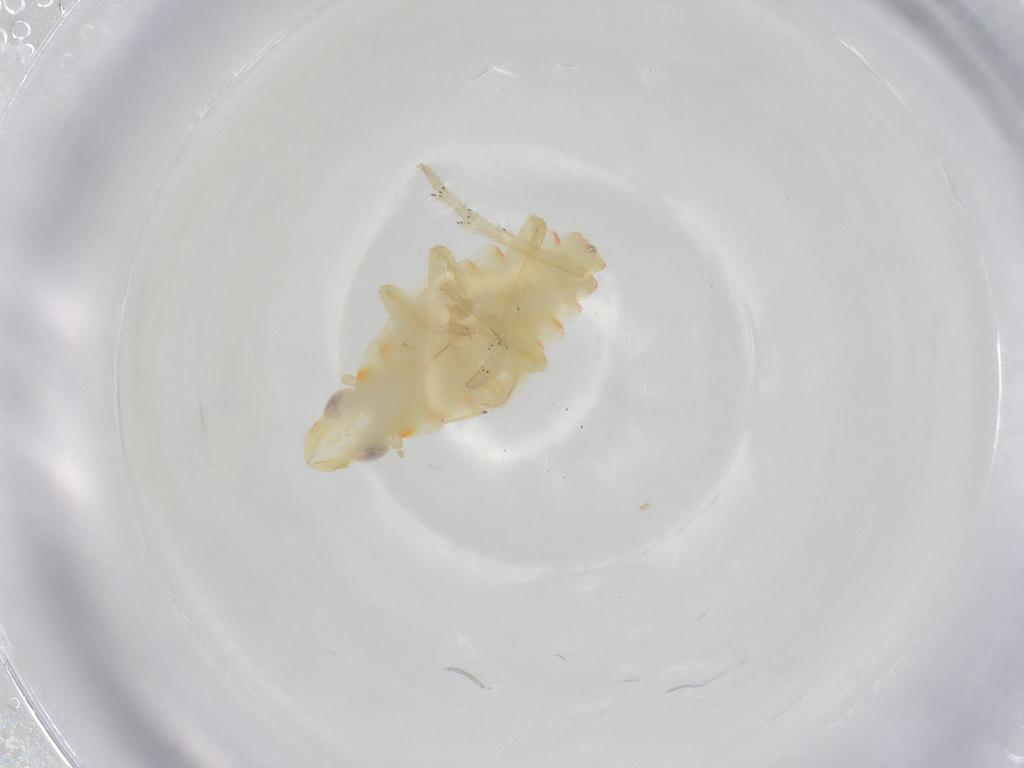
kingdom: Animalia
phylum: Arthropoda
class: Insecta
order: Hemiptera
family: Tropiduchidae
